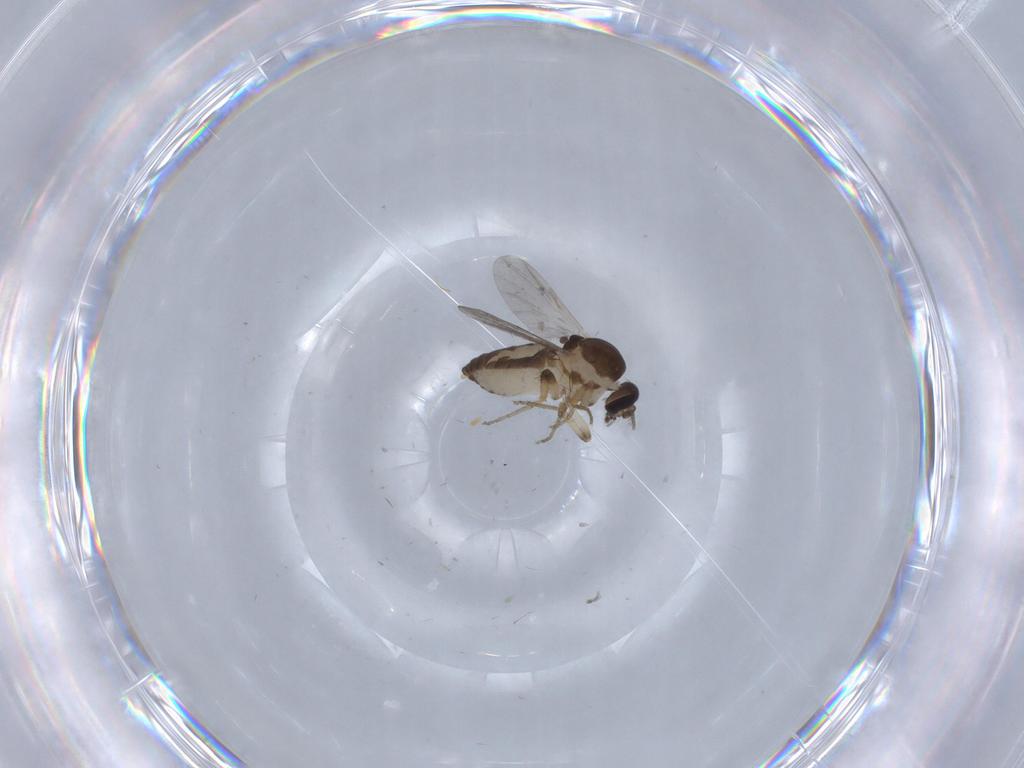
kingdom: Animalia
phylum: Arthropoda
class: Insecta
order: Diptera
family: Ceratopogonidae
